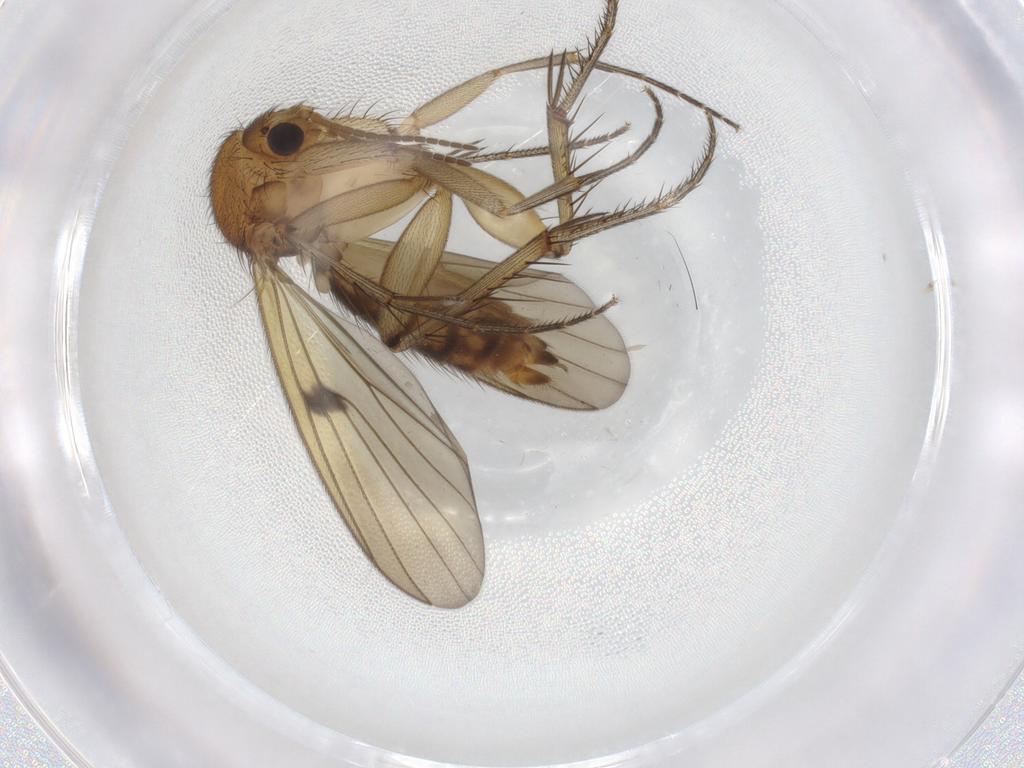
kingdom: Animalia
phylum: Arthropoda
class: Insecta
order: Diptera
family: Mycetophilidae
